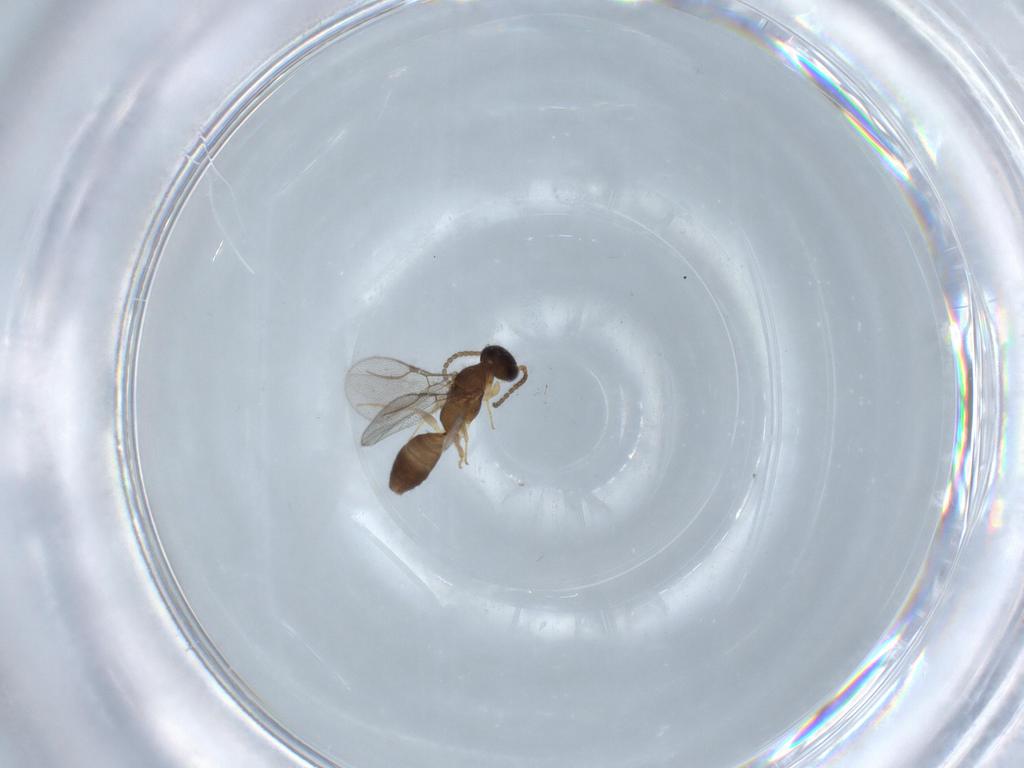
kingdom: Animalia
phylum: Arthropoda
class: Insecta
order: Hymenoptera
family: Bethylidae
